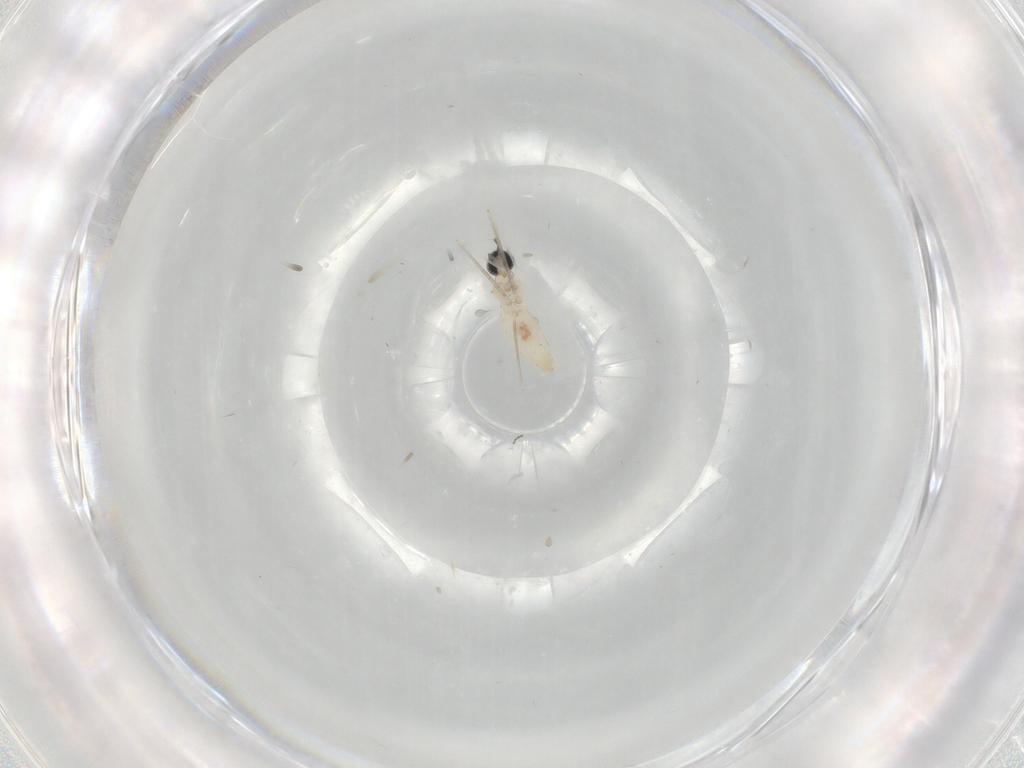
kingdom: Animalia
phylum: Arthropoda
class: Insecta
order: Diptera
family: Cecidomyiidae
